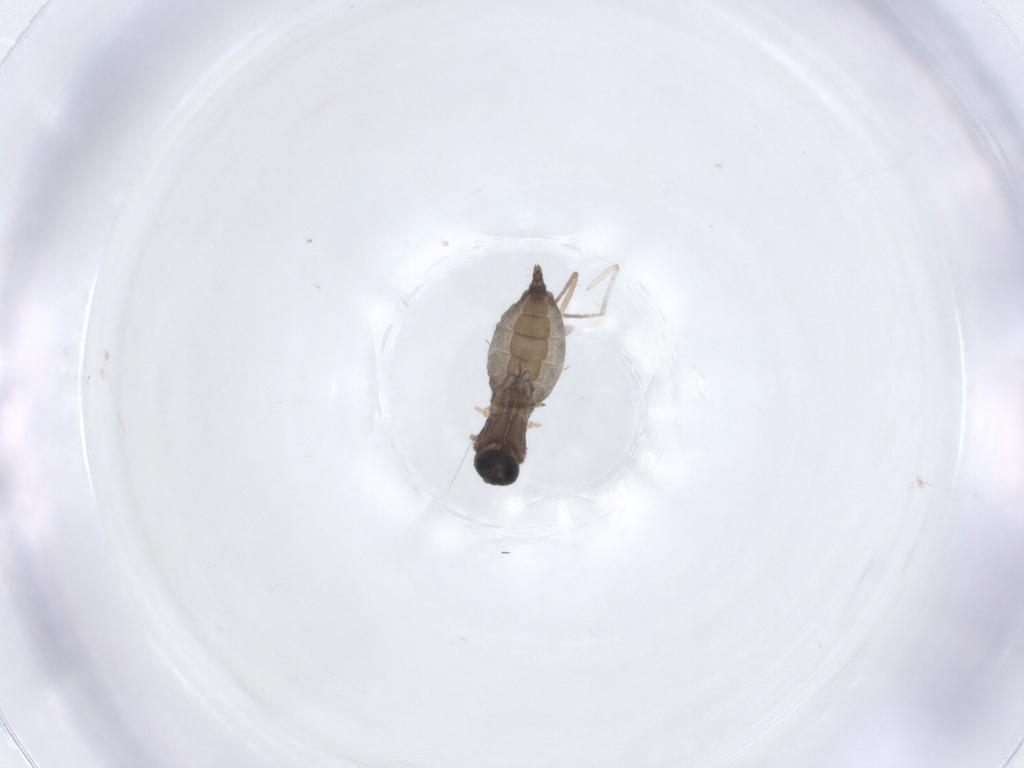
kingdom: Animalia
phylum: Arthropoda
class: Insecta
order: Diptera
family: Sciaridae
